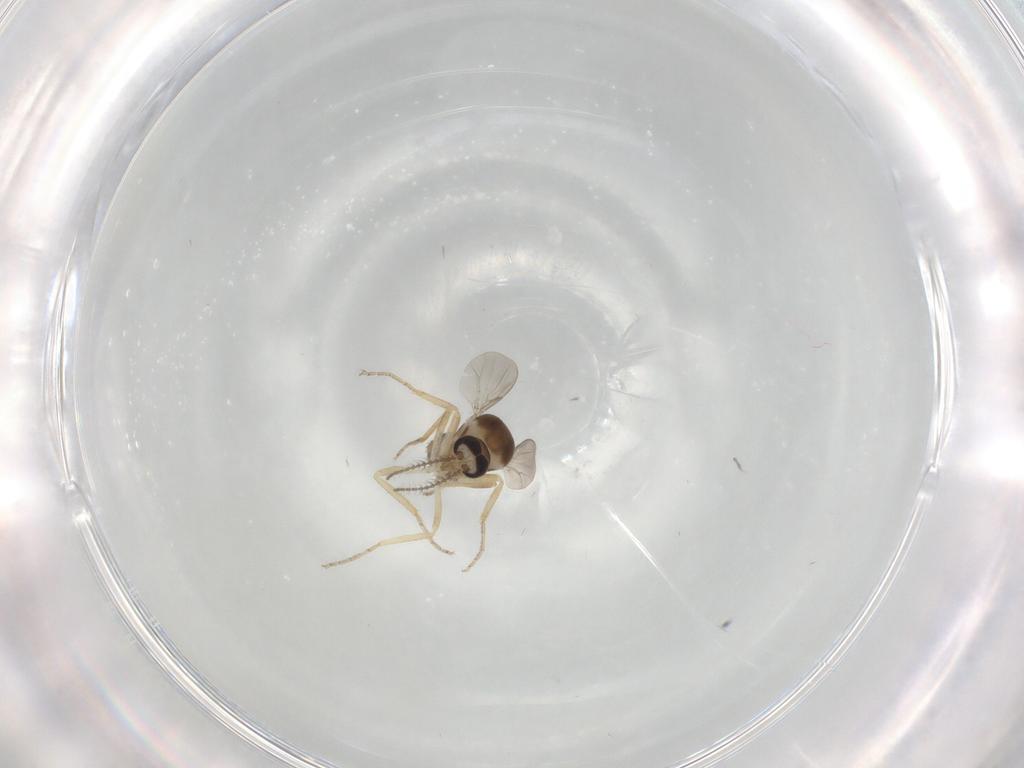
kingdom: Animalia
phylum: Arthropoda
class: Insecta
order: Diptera
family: Ceratopogonidae
